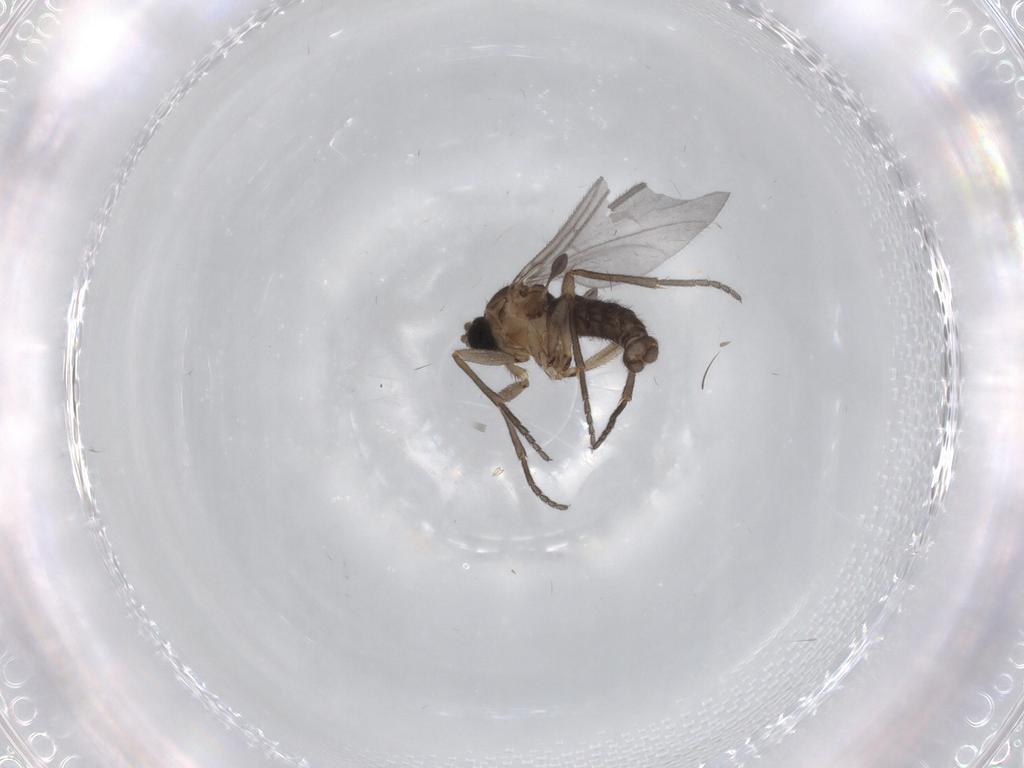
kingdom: Animalia
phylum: Arthropoda
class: Insecta
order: Diptera
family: Sciaridae
